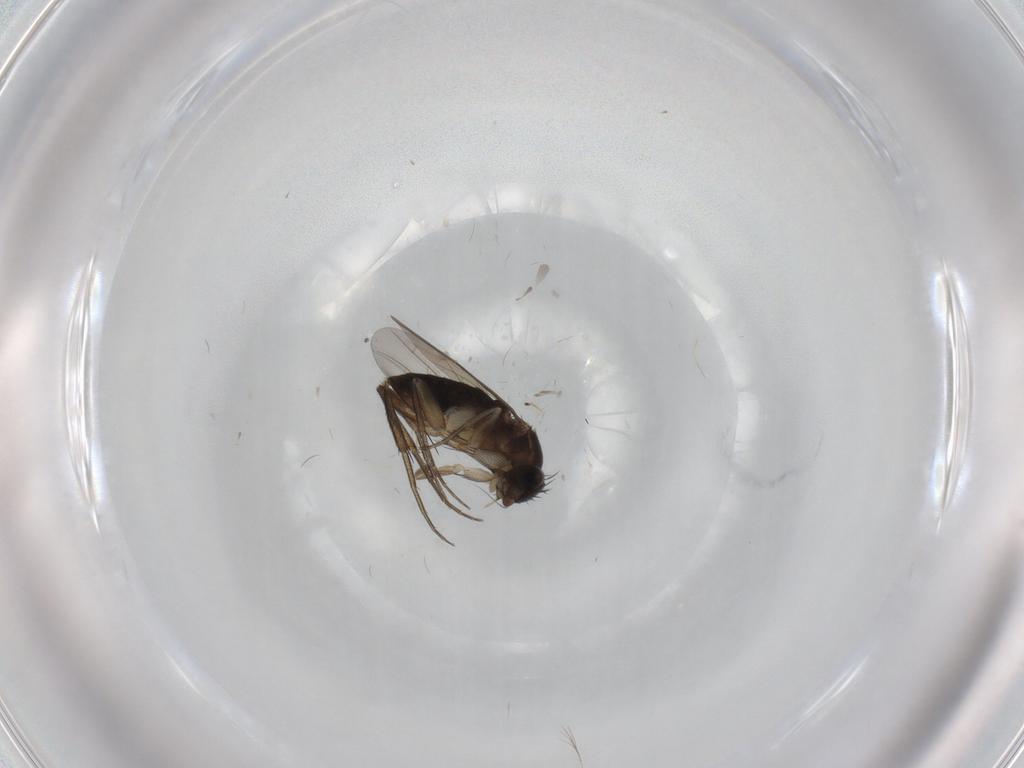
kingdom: Animalia
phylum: Arthropoda
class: Insecta
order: Diptera
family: Phoridae
